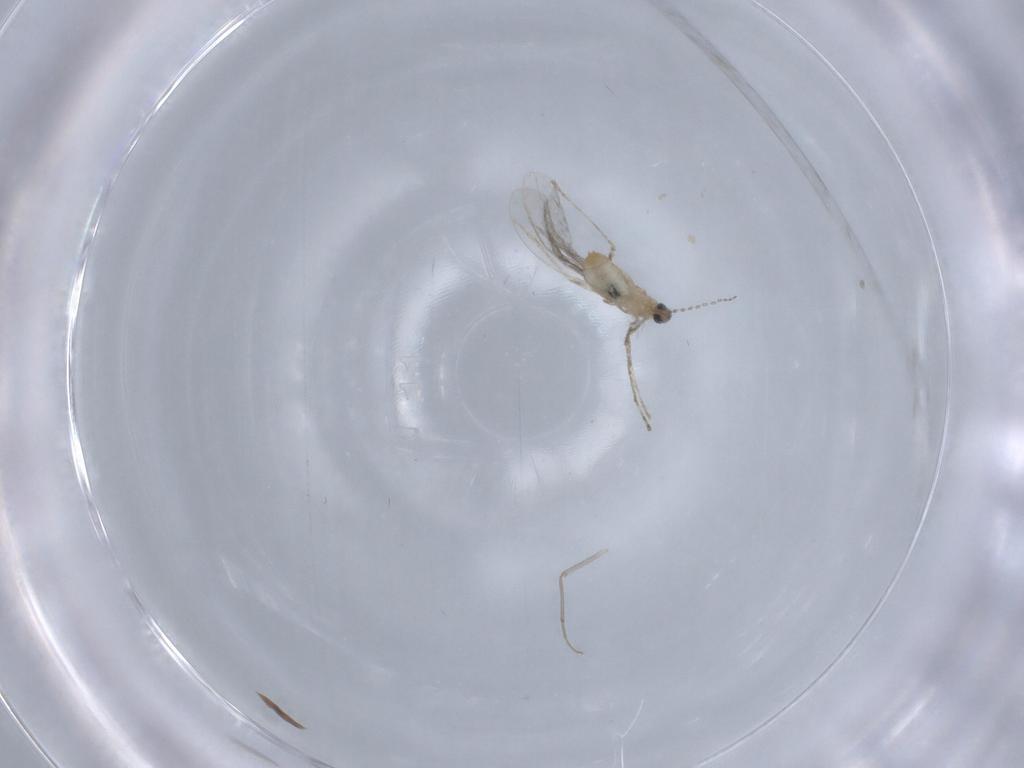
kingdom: Animalia
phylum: Arthropoda
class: Insecta
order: Diptera
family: Cecidomyiidae
